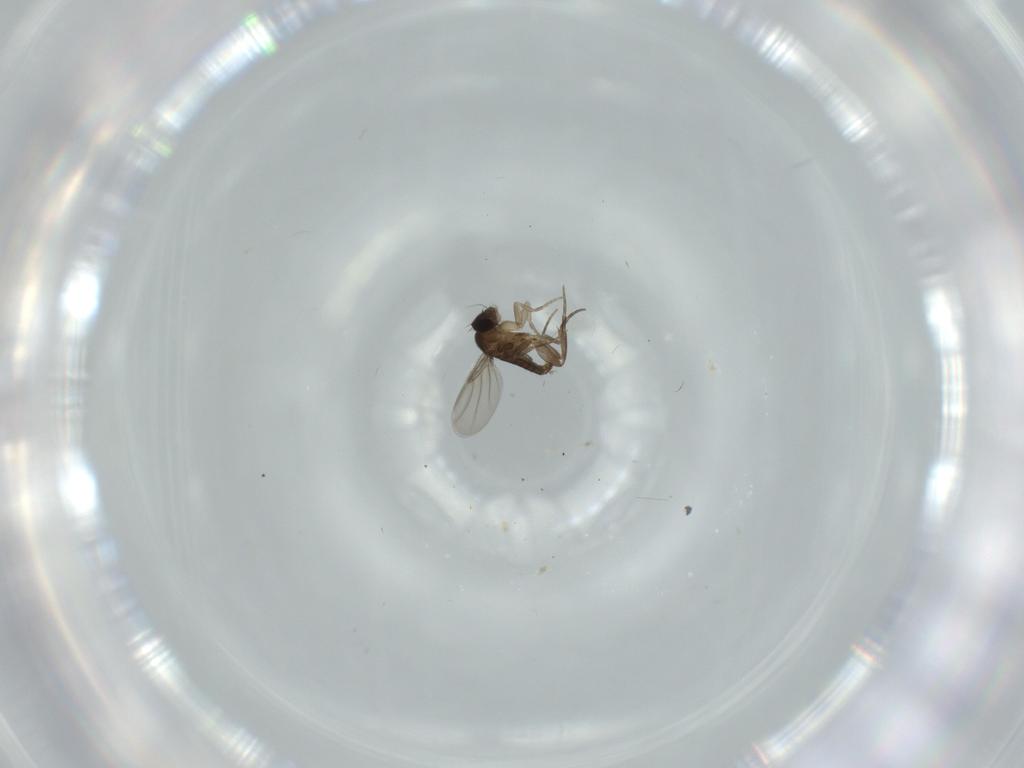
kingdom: Animalia
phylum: Arthropoda
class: Insecta
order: Diptera
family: Phoridae
